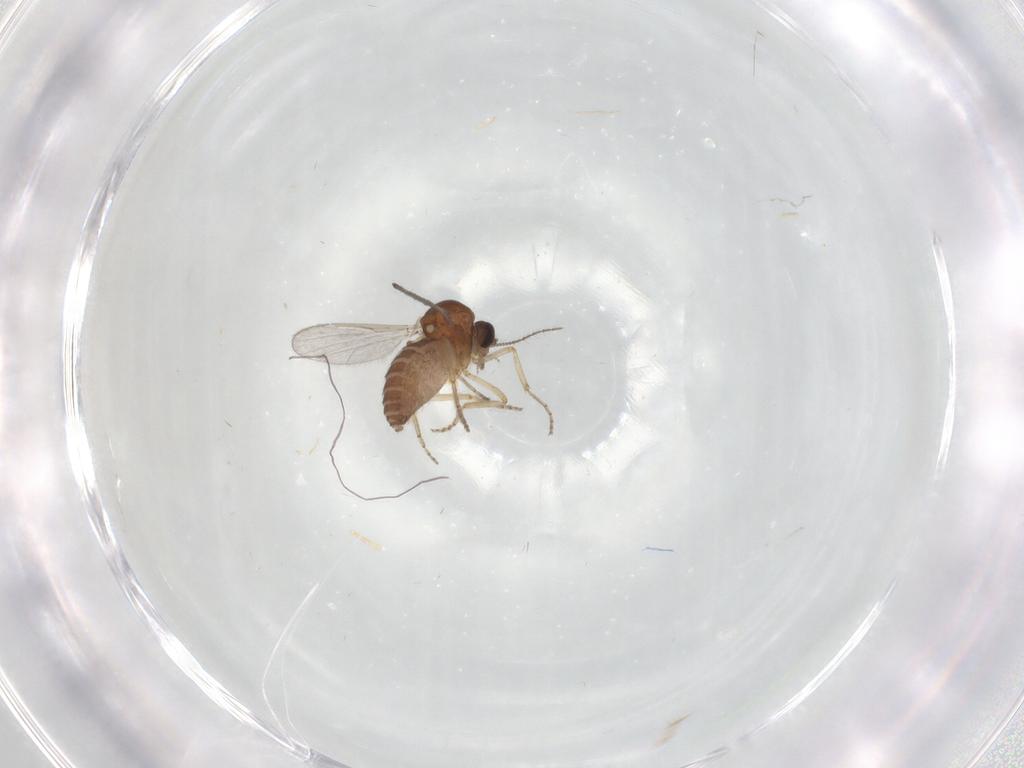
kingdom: Animalia
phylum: Arthropoda
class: Insecta
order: Diptera
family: Ceratopogonidae
